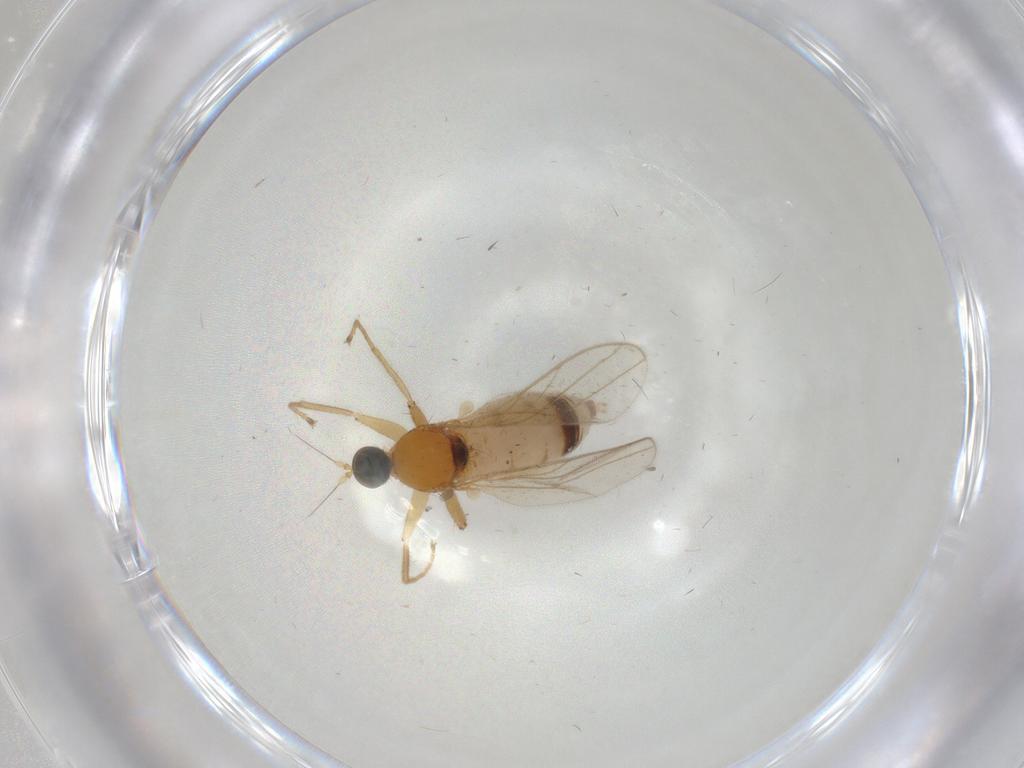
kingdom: Animalia
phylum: Arthropoda
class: Insecta
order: Diptera
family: Hybotidae
